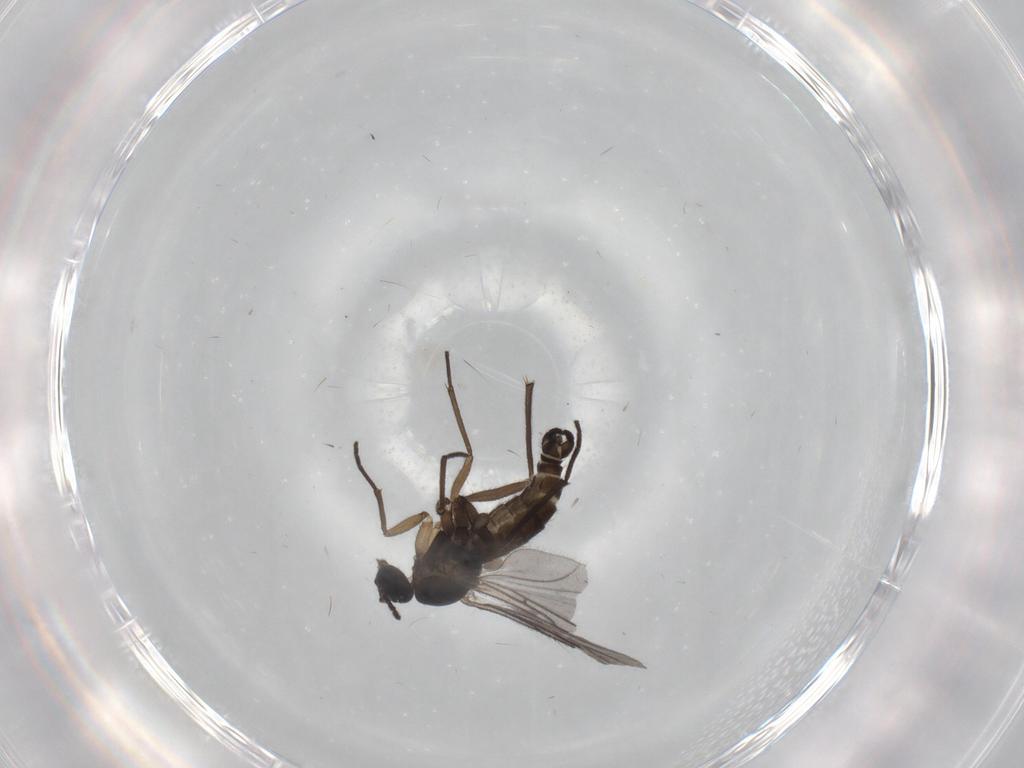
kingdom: Animalia
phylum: Arthropoda
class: Insecta
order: Diptera
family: Sciaridae
